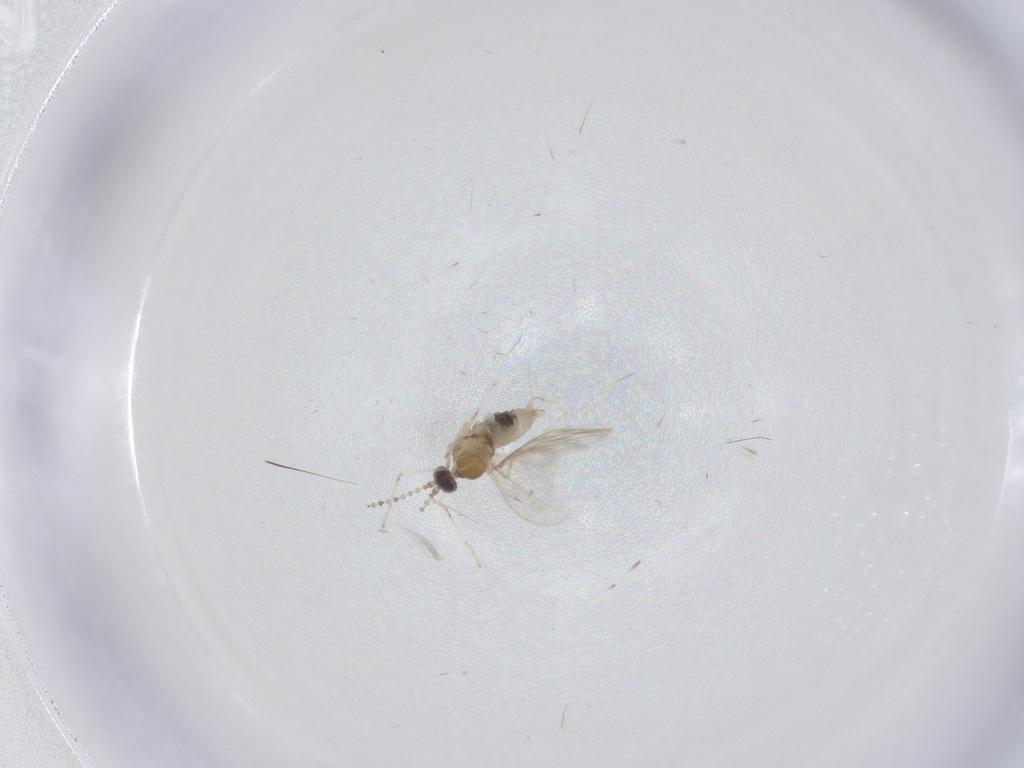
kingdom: Animalia
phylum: Arthropoda
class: Insecta
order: Diptera
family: Cecidomyiidae
